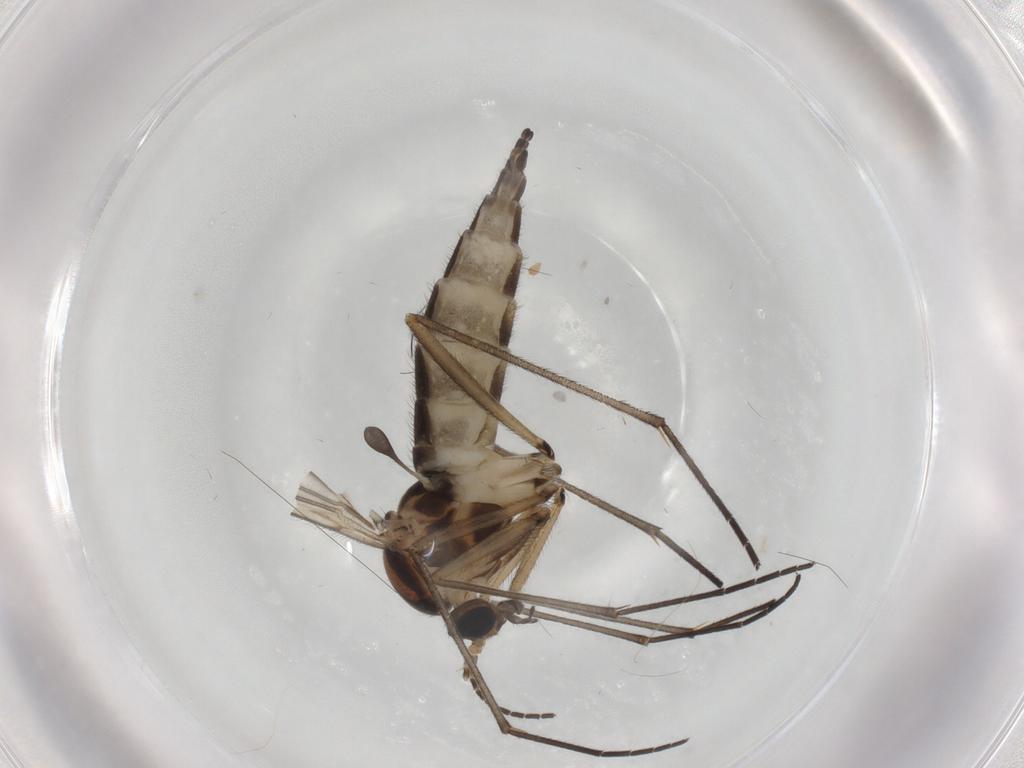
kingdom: Animalia
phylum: Arthropoda
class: Insecta
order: Diptera
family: Sciaridae
